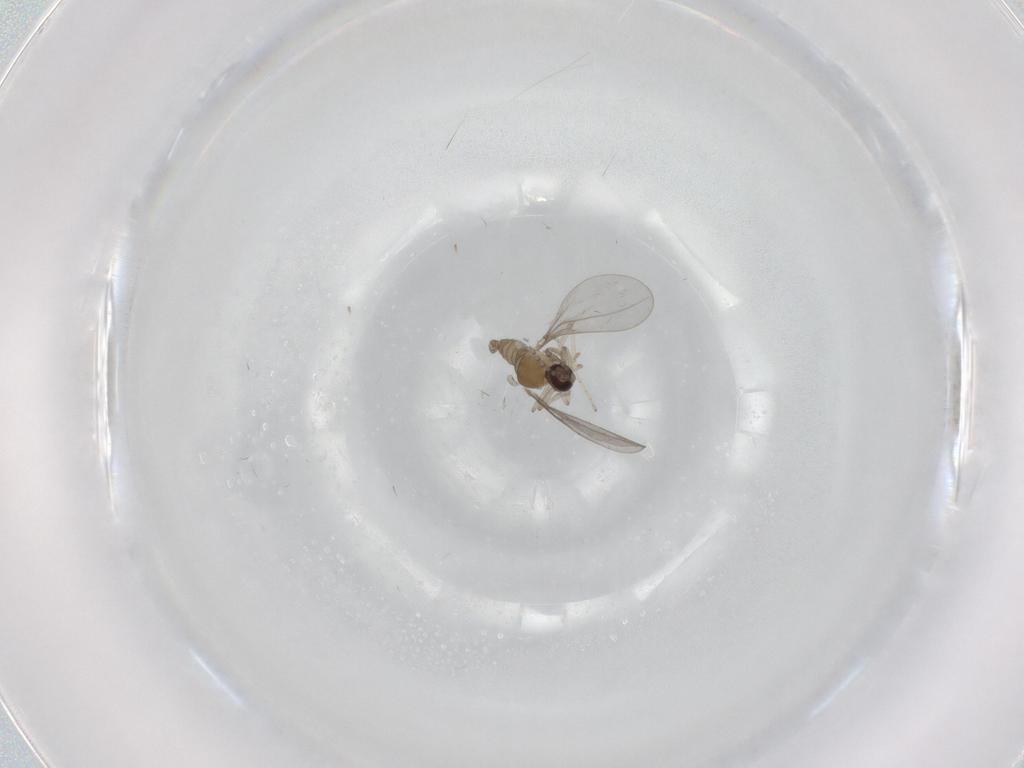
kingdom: Animalia
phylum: Arthropoda
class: Insecta
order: Diptera
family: Cecidomyiidae
